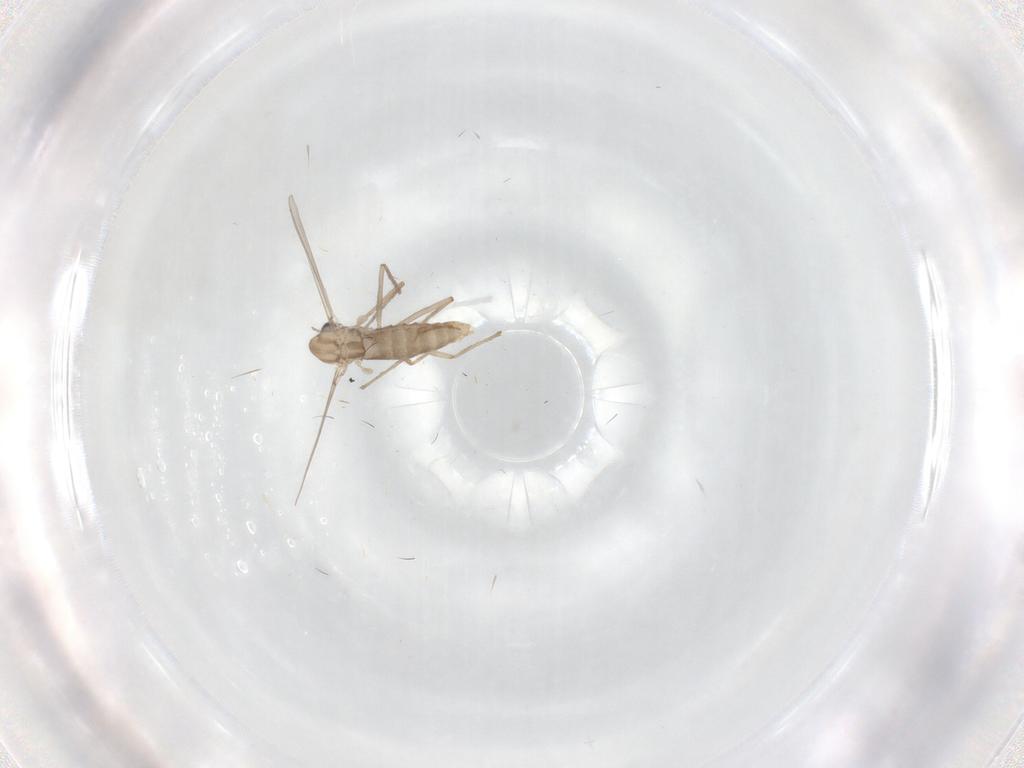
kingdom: Animalia
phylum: Arthropoda
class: Insecta
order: Diptera
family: Chironomidae
